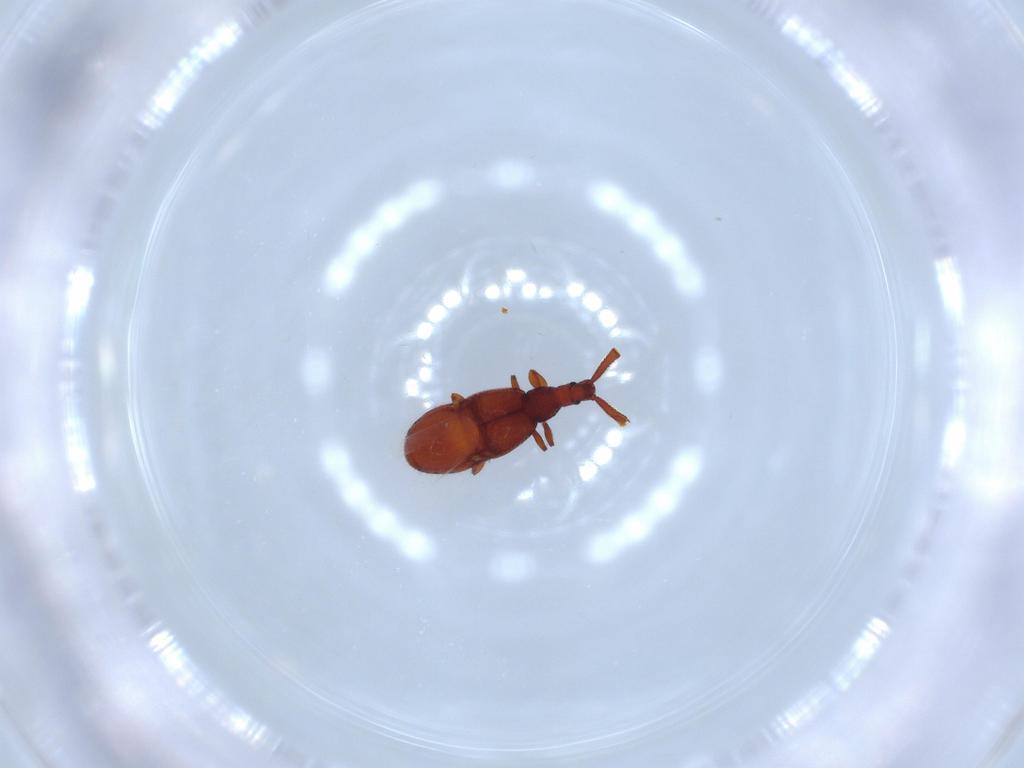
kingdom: Animalia
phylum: Arthropoda
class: Insecta
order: Coleoptera
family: Staphylinidae
